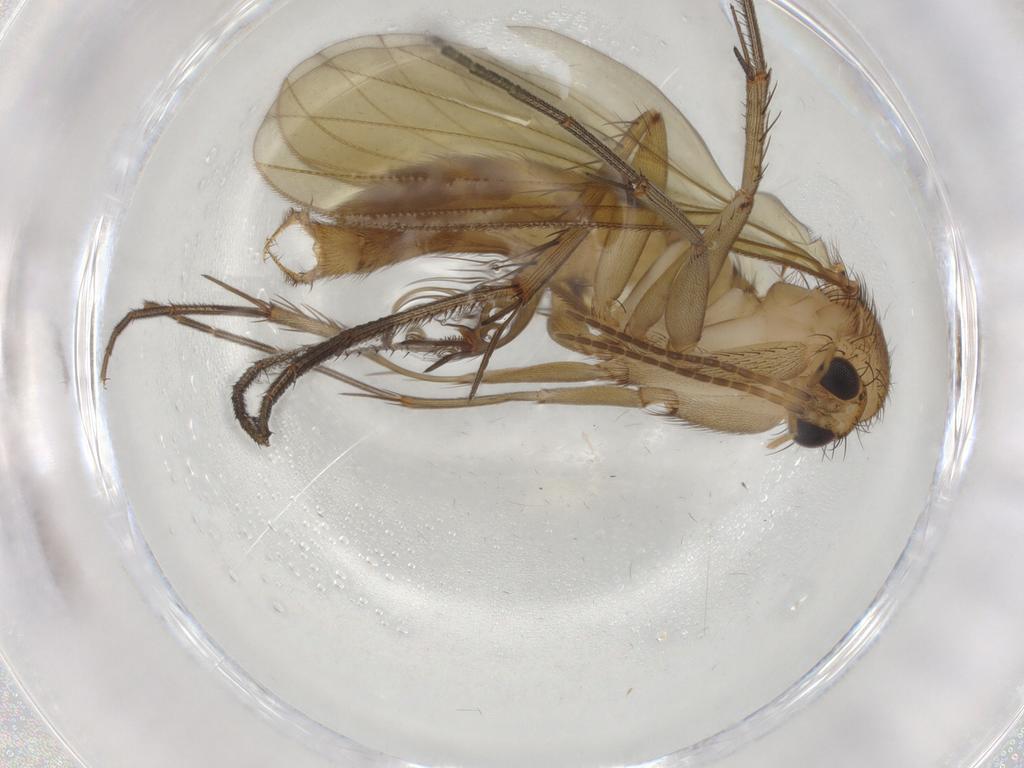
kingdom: Animalia
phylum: Arthropoda
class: Insecta
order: Diptera
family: Mycetophilidae
